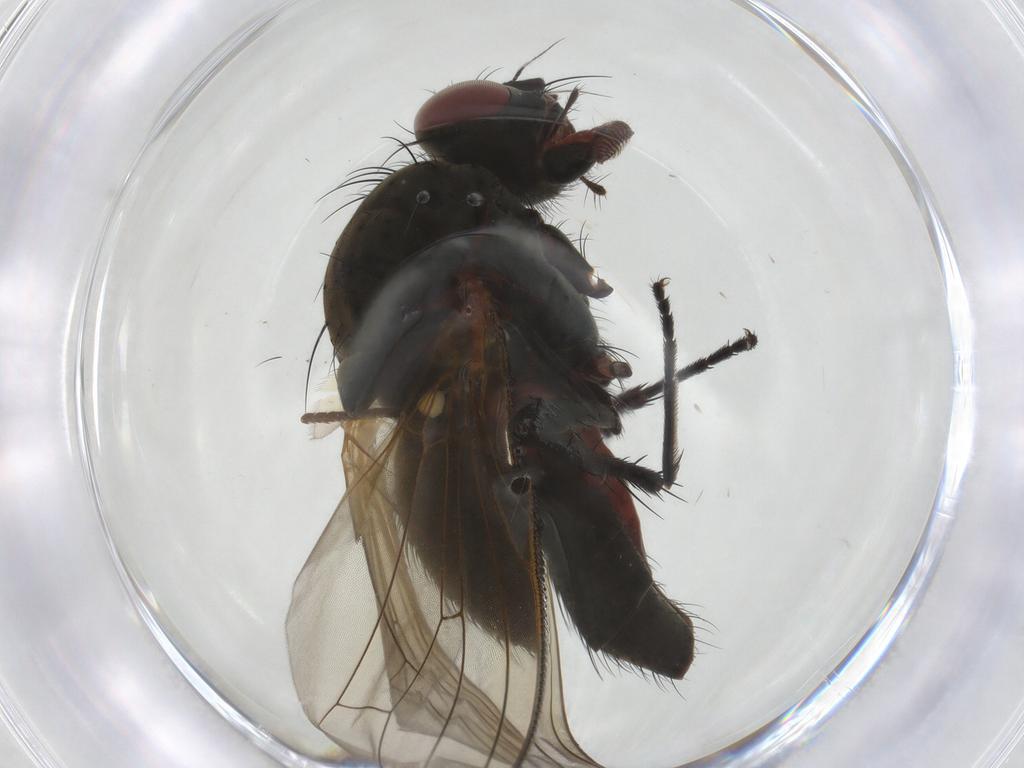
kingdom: Animalia
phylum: Arthropoda
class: Insecta
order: Diptera
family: Anthomyiidae
